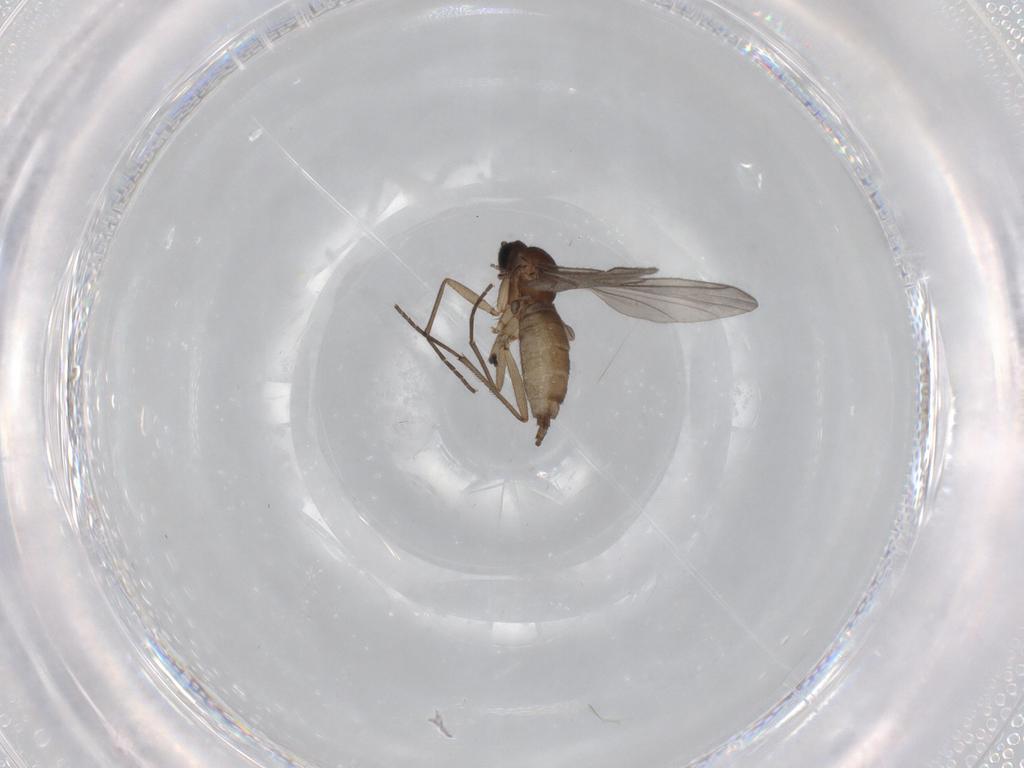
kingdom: Animalia
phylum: Arthropoda
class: Insecta
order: Diptera
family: Sciaridae
